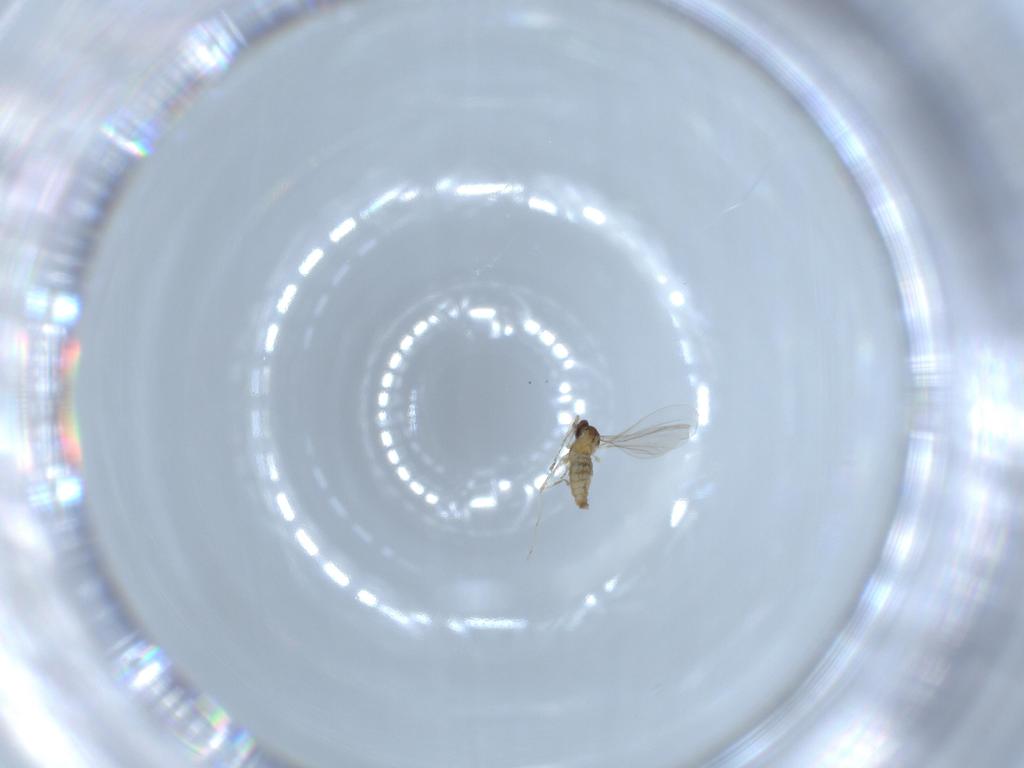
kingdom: Animalia
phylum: Arthropoda
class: Insecta
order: Diptera
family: Cecidomyiidae
